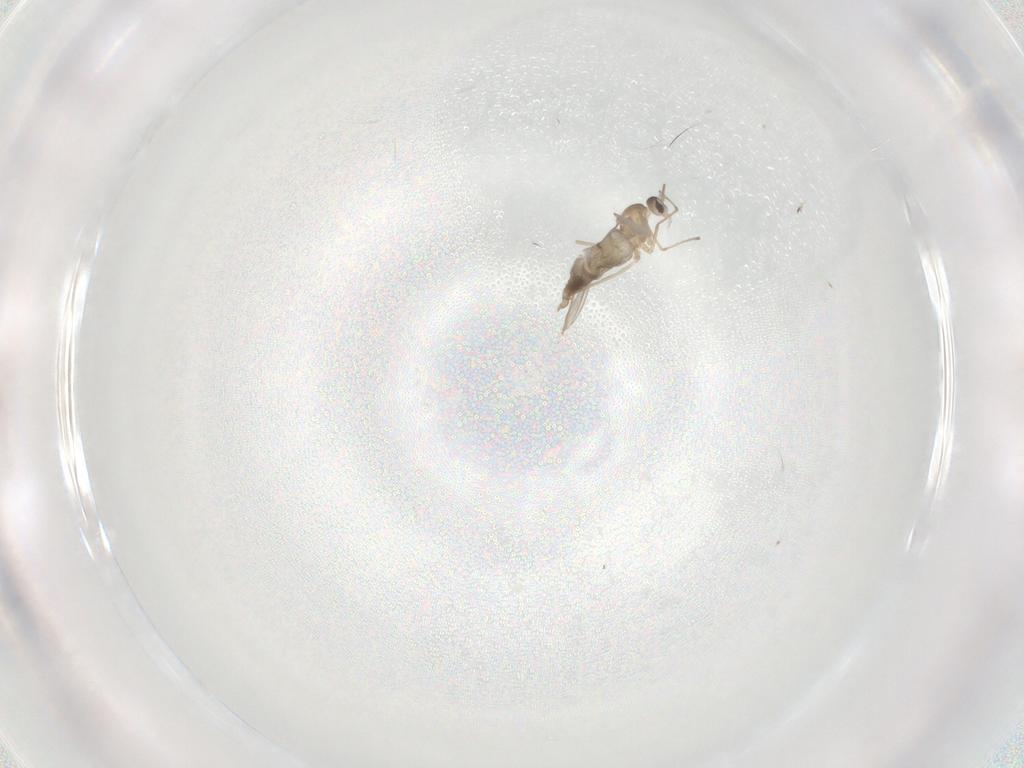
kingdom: Animalia
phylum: Arthropoda
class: Insecta
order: Diptera
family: Cecidomyiidae
